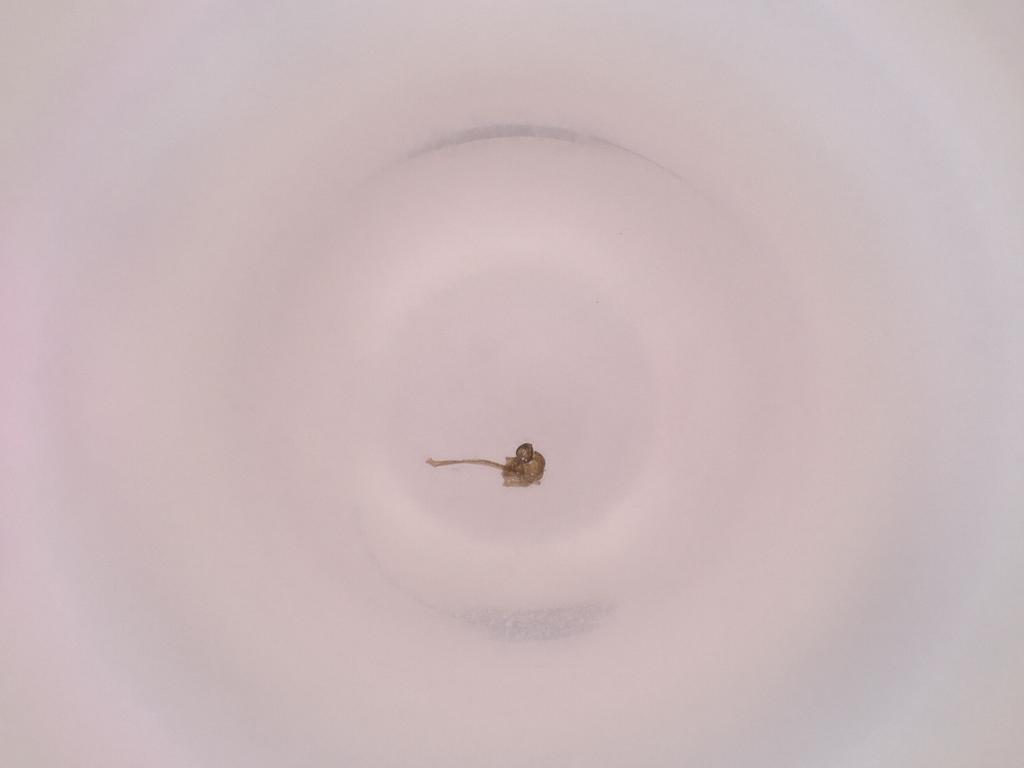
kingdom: Animalia
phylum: Arthropoda
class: Insecta
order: Diptera
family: Cecidomyiidae
